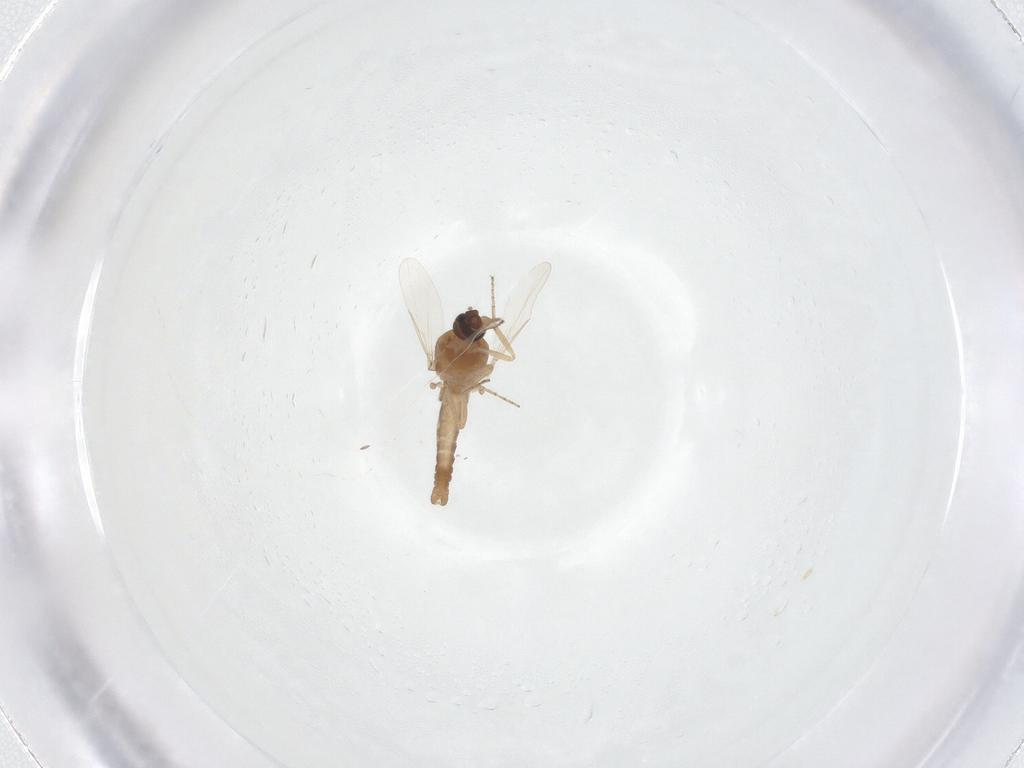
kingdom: Animalia
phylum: Arthropoda
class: Insecta
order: Diptera
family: Ceratopogonidae
